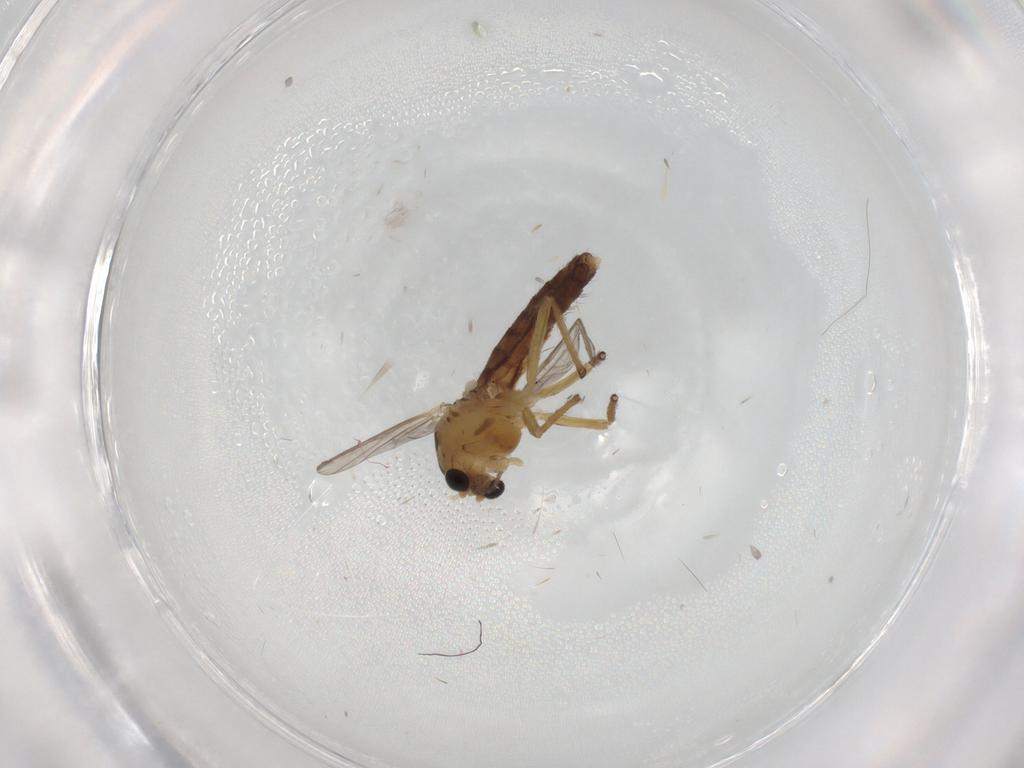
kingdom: Animalia
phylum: Arthropoda
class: Insecta
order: Diptera
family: Chironomidae
